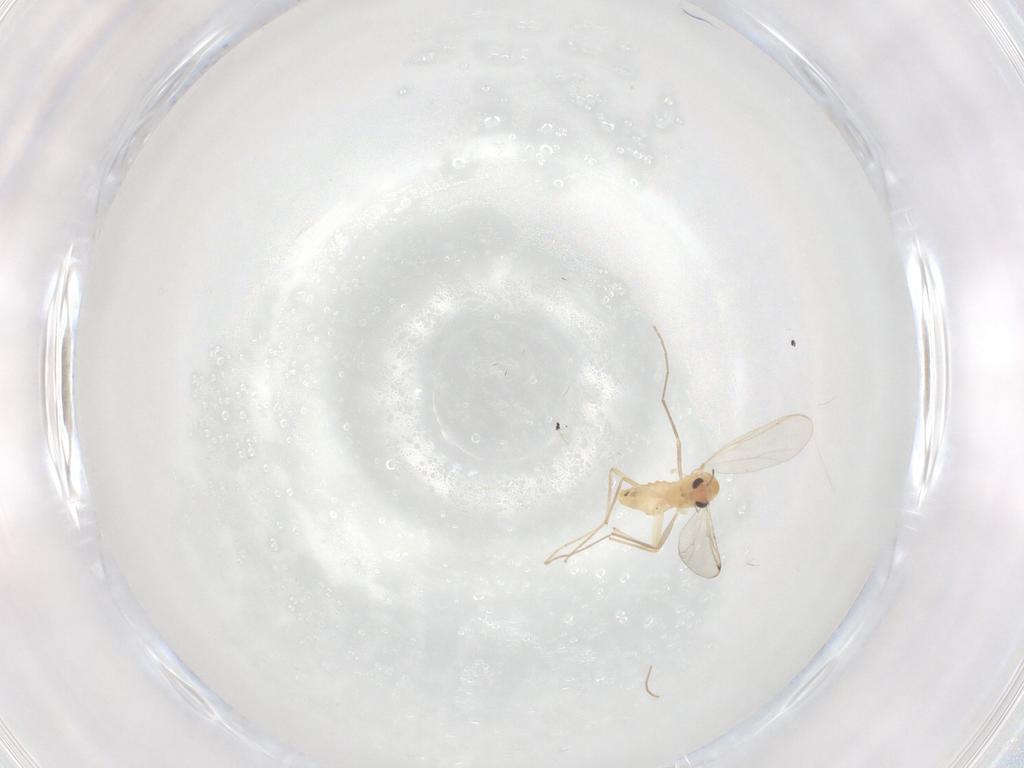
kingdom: Animalia
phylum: Arthropoda
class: Insecta
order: Diptera
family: Chironomidae
